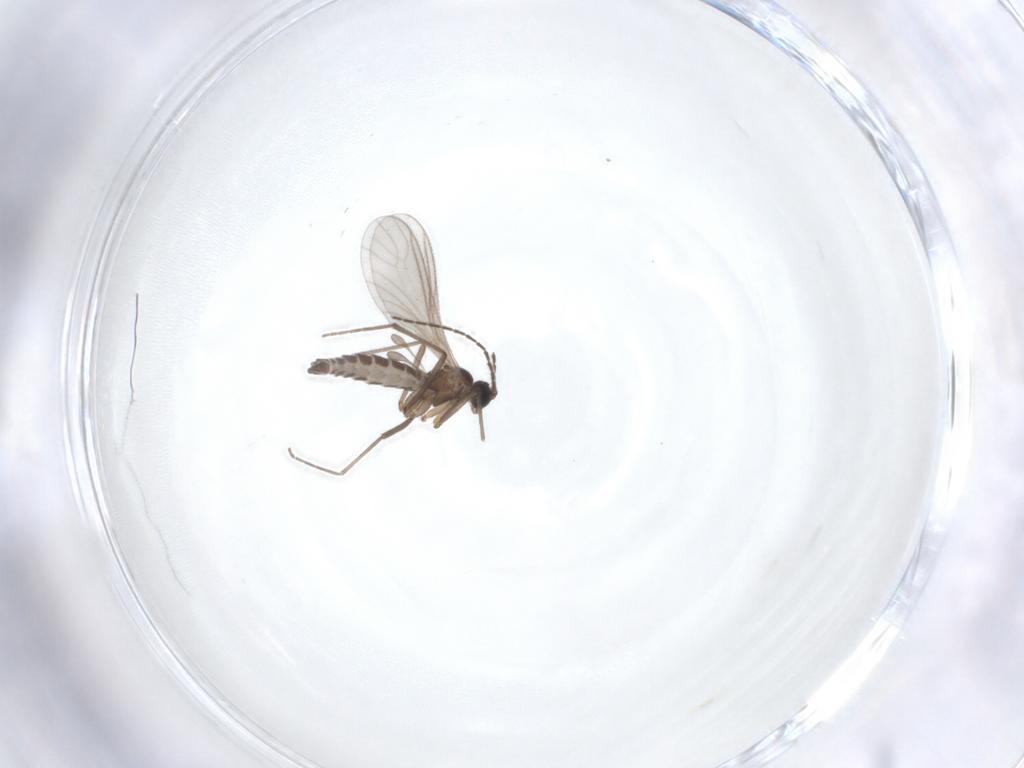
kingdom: Animalia
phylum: Arthropoda
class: Insecta
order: Diptera
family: Sciaridae
